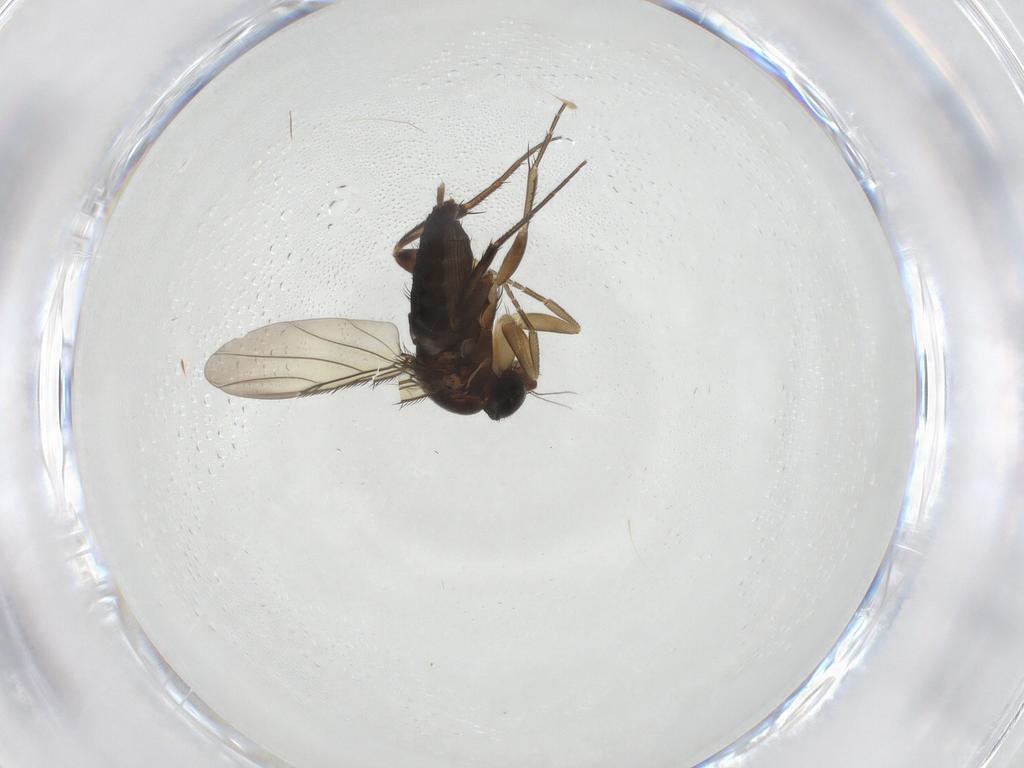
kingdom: Animalia
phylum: Arthropoda
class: Insecta
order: Diptera
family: Phoridae
